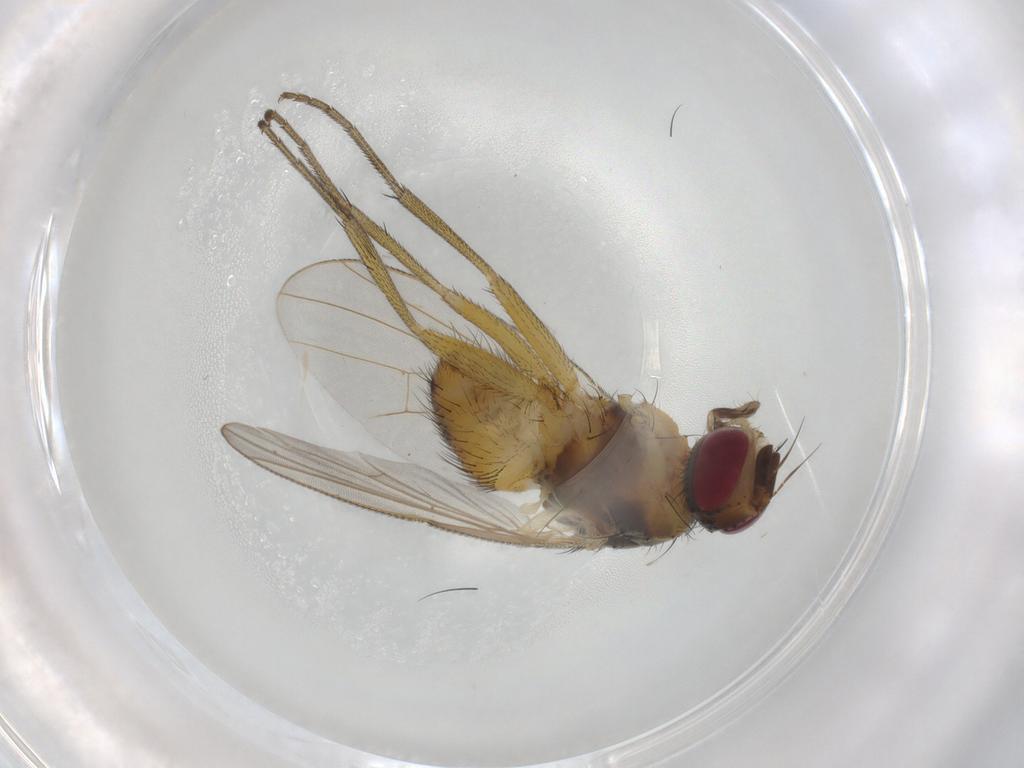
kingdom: Animalia
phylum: Arthropoda
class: Insecta
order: Diptera
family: Muscidae
